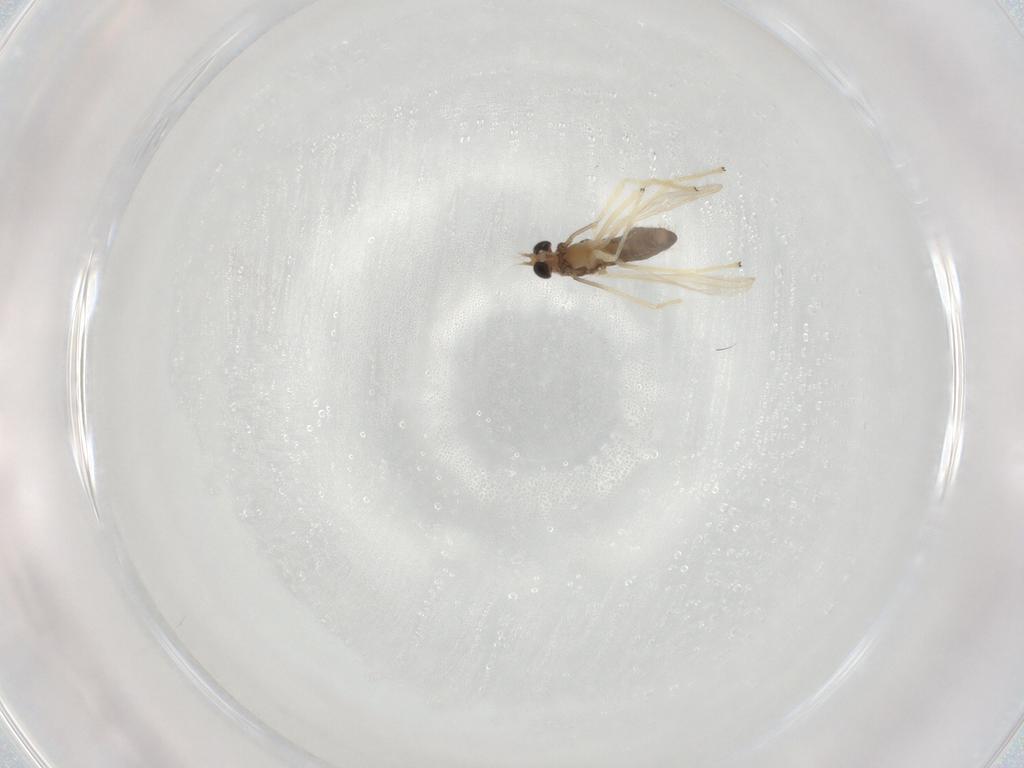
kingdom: Animalia
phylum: Arthropoda
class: Insecta
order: Diptera
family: Chironomidae
